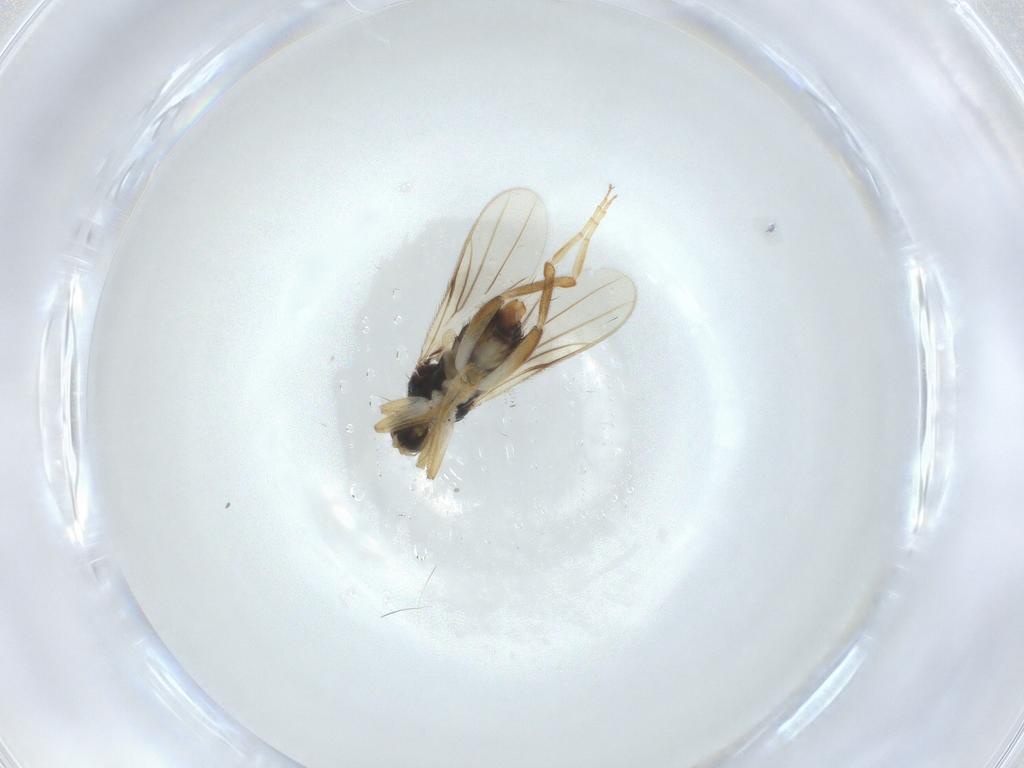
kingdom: Animalia
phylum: Arthropoda
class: Insecta
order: Diptera
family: Hybotidae
